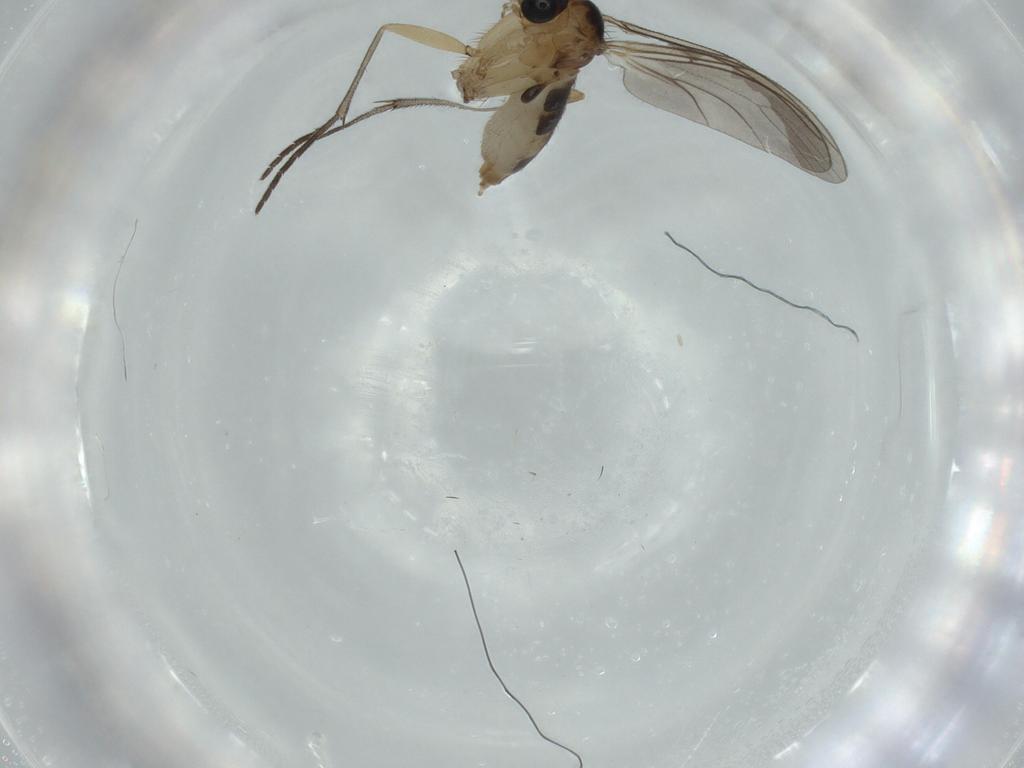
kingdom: Animalia
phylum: Arthropoda
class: Insecta
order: Diptera
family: Sciaridae
